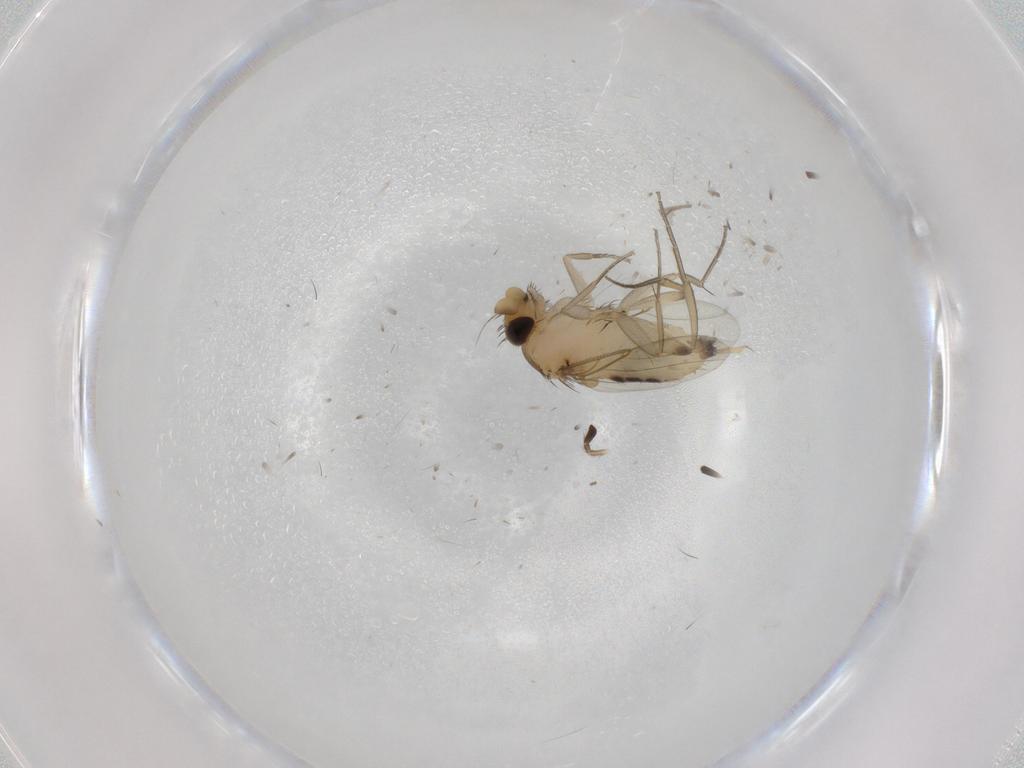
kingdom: Animalia
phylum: Arthropoda
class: Insecta
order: Diptera
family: Phoridae
